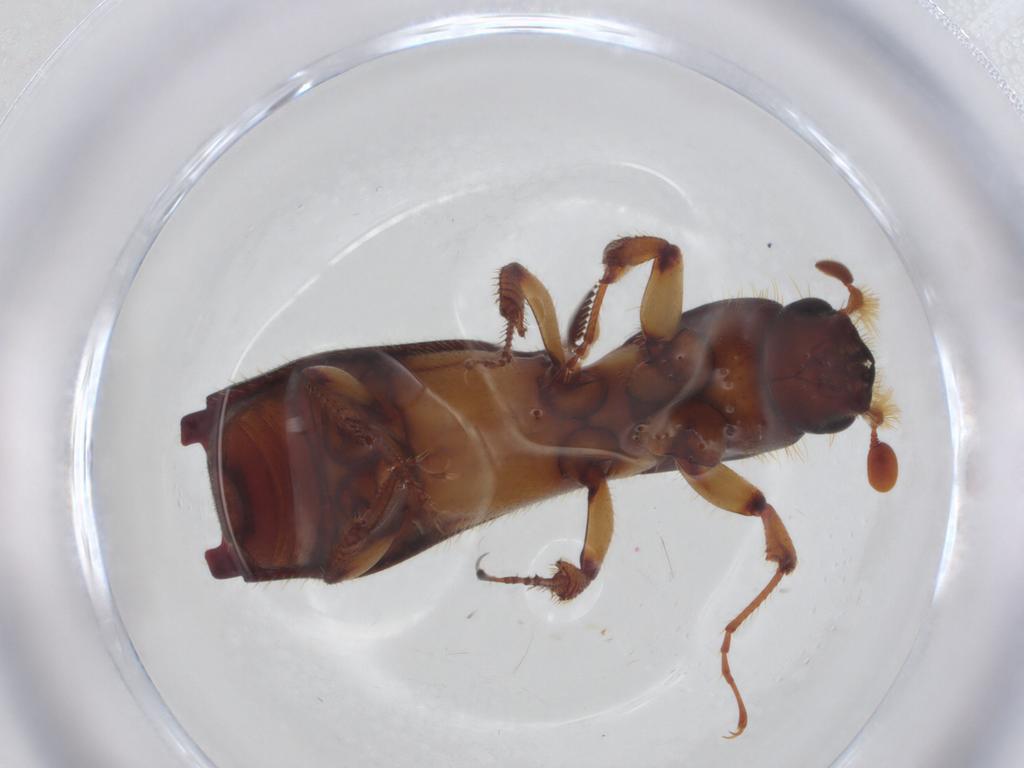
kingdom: Animalia
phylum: Arthropoda
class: Insecta
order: Coleoptera
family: Curculionidae
